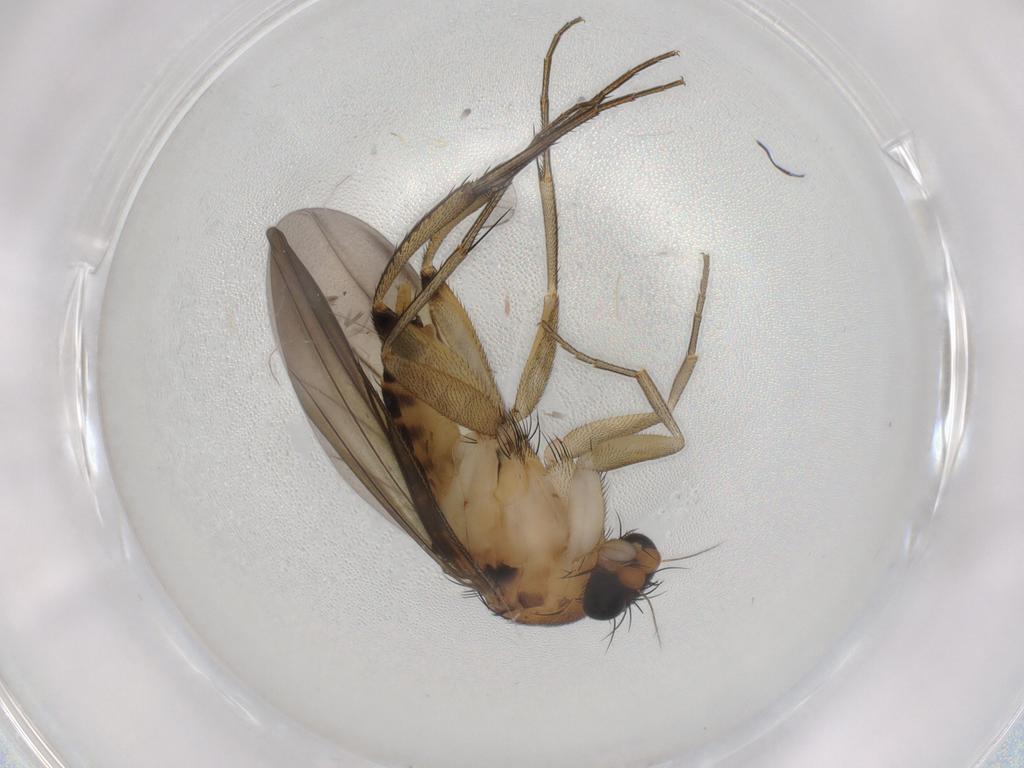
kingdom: Animalia
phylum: Arthropoda
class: Insecta
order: Diptera
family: Phoridae
